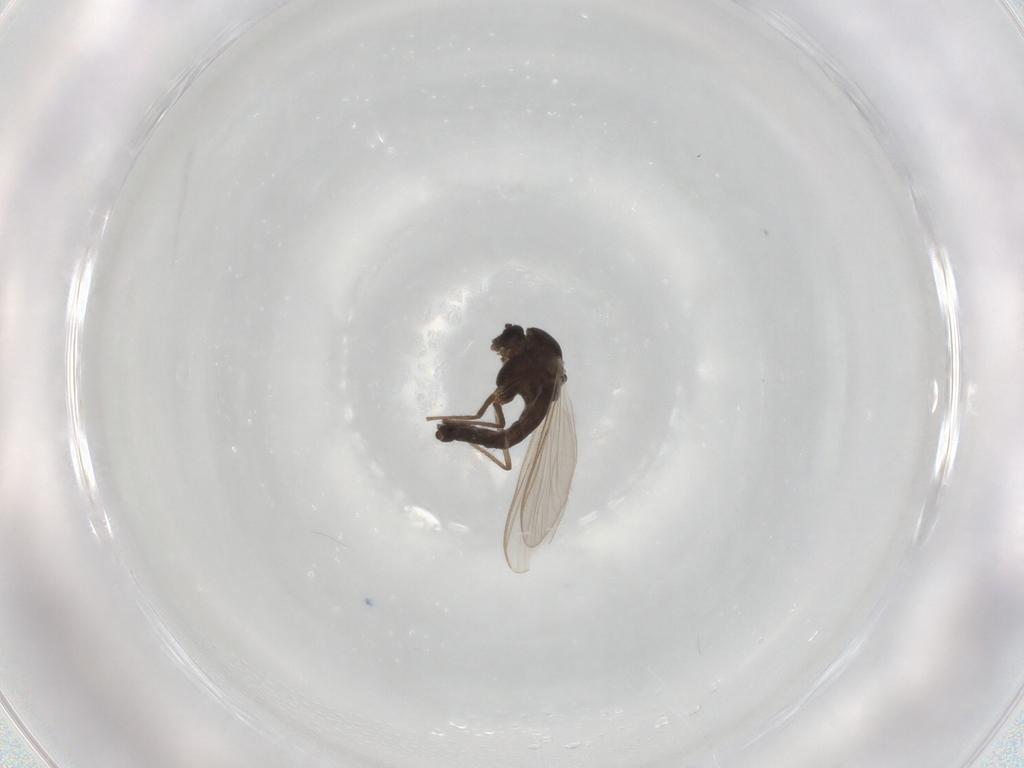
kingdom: Animalia
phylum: Arthropoda
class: Insecta
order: Diptera
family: Chironomidae
